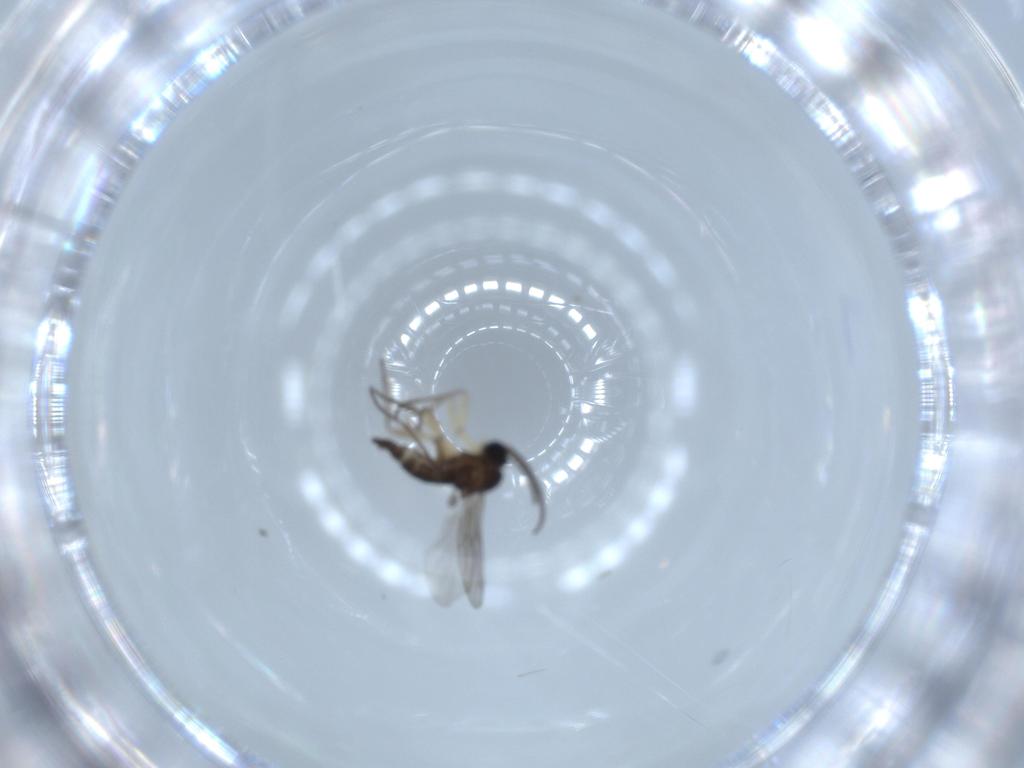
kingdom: Animalia
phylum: Arthropoda
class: Insecta
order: Diptera
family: Sciaridae
